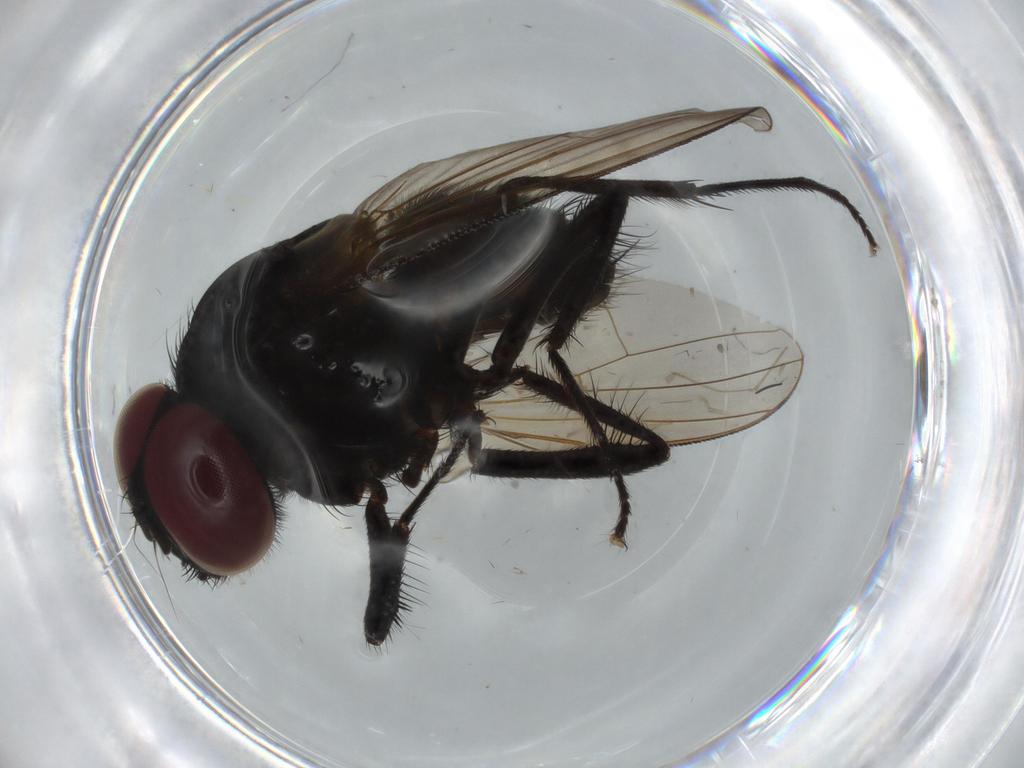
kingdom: Animalia
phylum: Arthropoda
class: Insecta
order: Diptera
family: Muscidae
